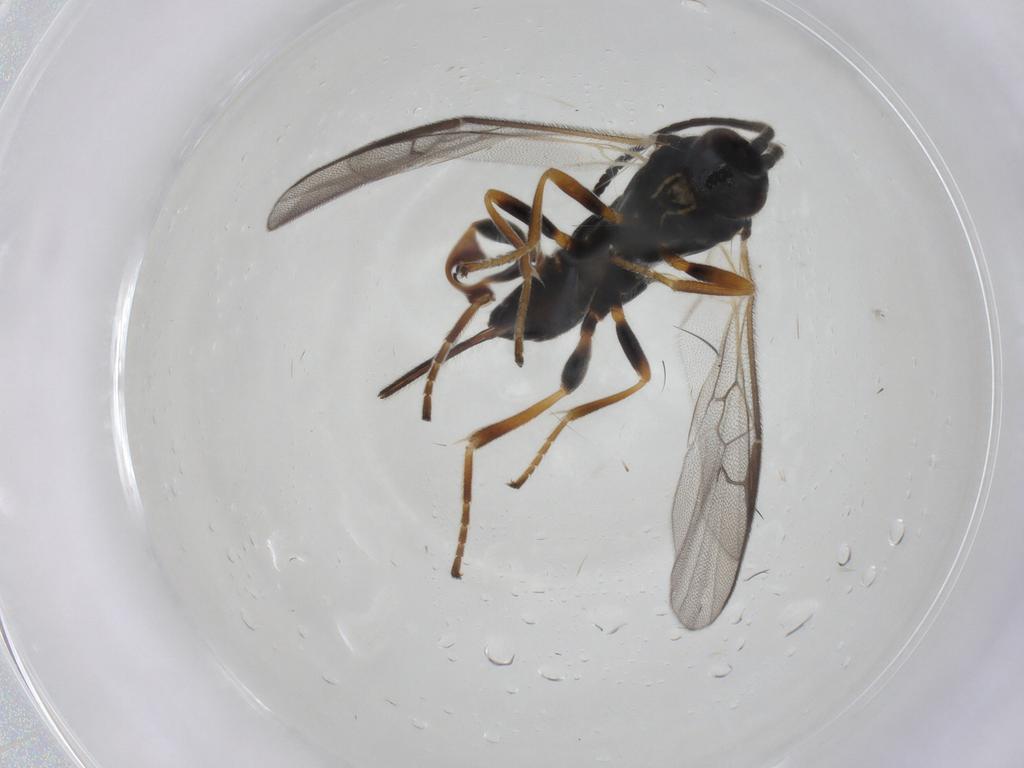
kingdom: Animalia
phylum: Arthropoda
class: Insecta
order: Hymenoptera
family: Braconidae
